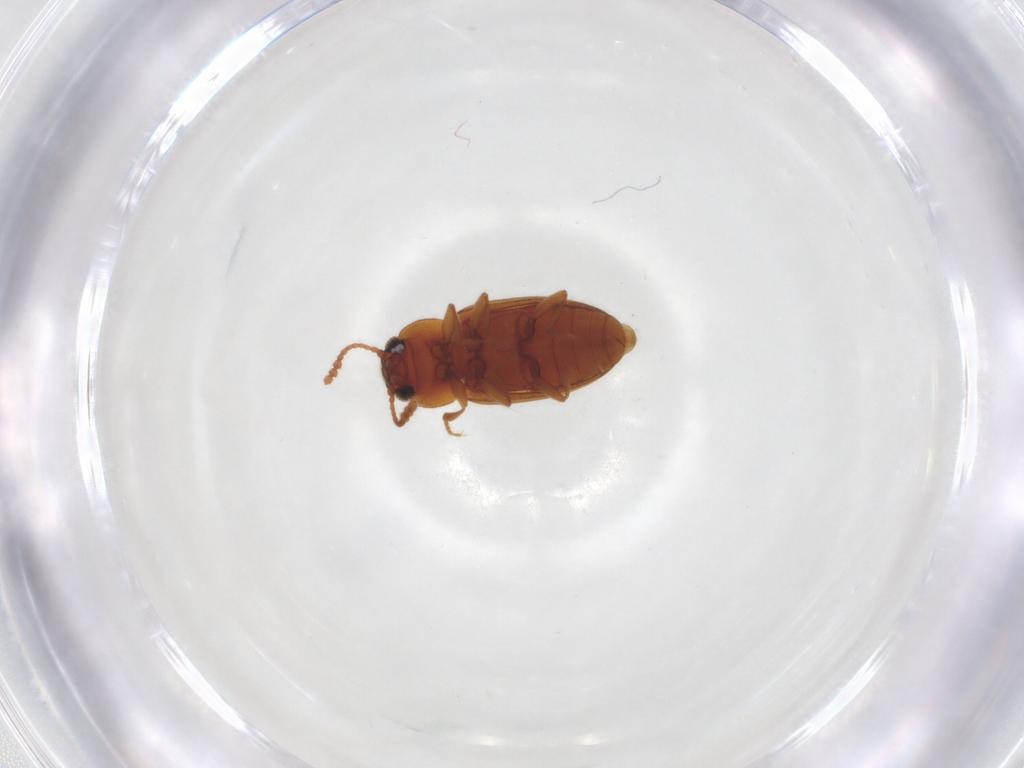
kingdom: Animalia
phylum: Arthropoda
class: Insecta
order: Coleoptera
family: Erotylidae
